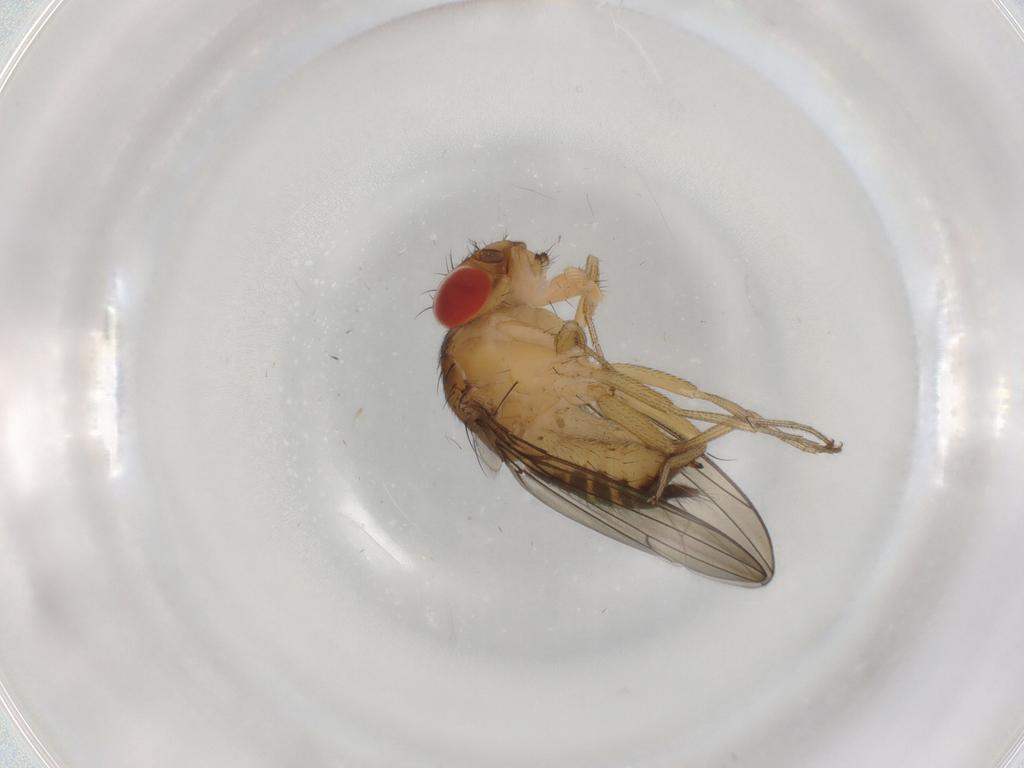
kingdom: Animalia
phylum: Arthropoda
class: Insecta
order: Diptera
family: Drosophilidae
